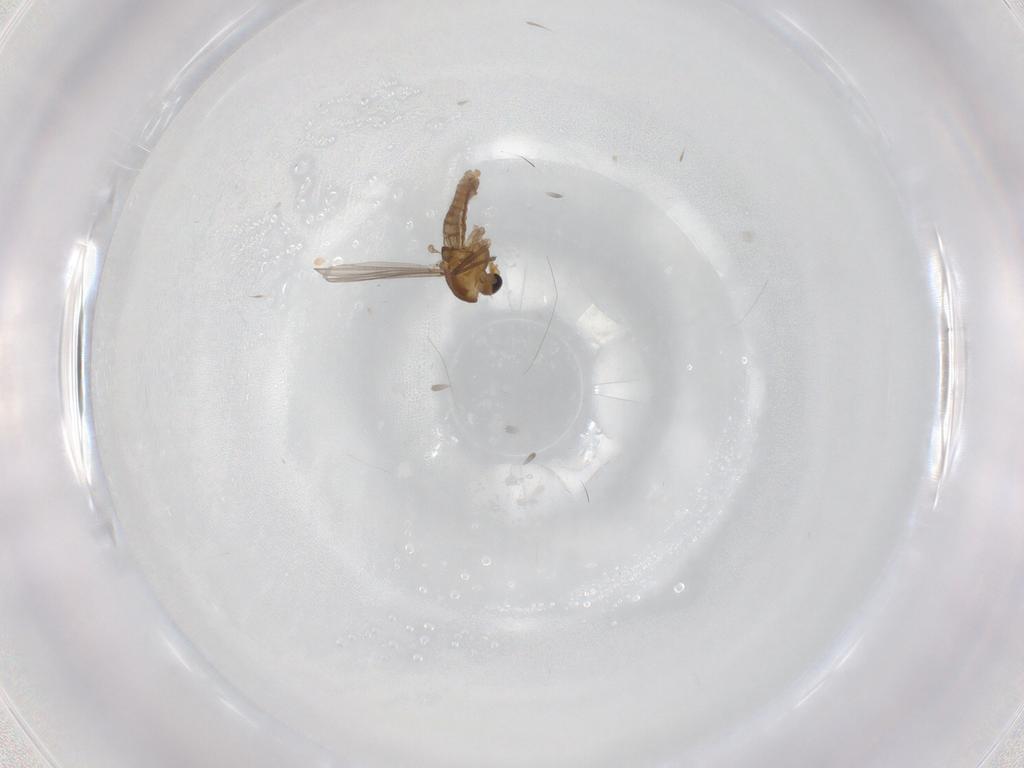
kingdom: Animalia
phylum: Arthropoda
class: Insecta
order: Diptera
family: Chironomidae
